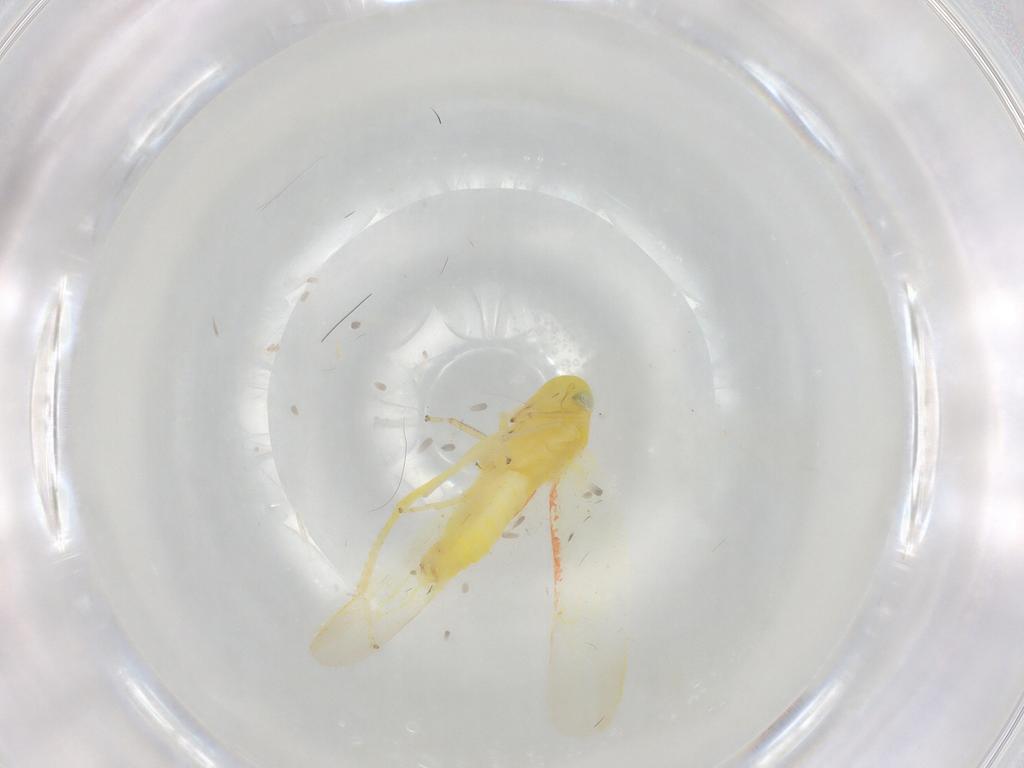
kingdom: Animalia
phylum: Arthropoda
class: Insecta
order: Hemiptera
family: Cicadellidae
